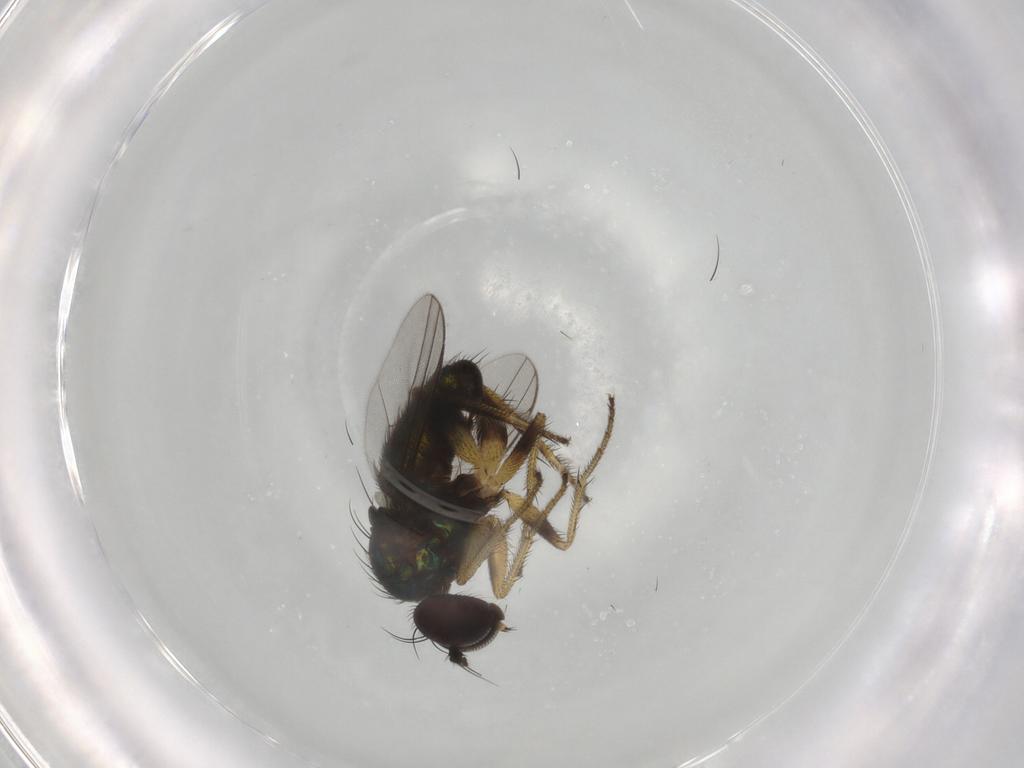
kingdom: Animalia
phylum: Arthropoda
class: Insecta
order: Diptera
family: Dolichopodidae
